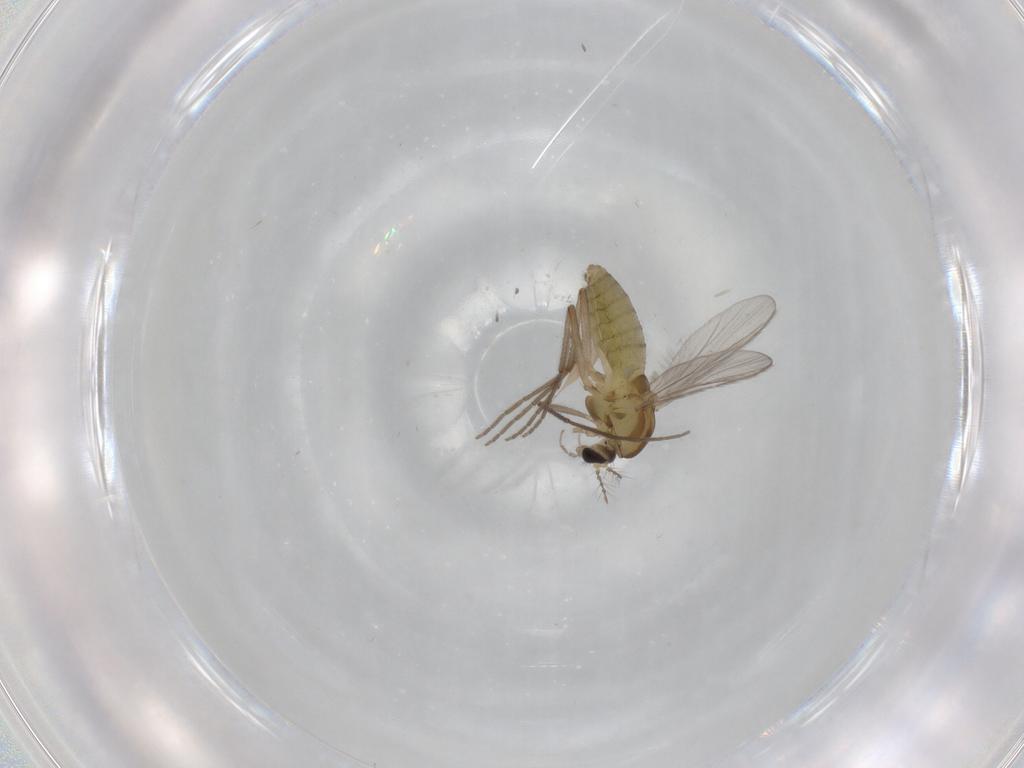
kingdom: Animalia
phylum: Arthropoda
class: Insecta
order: Diptera
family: Chironomidae
